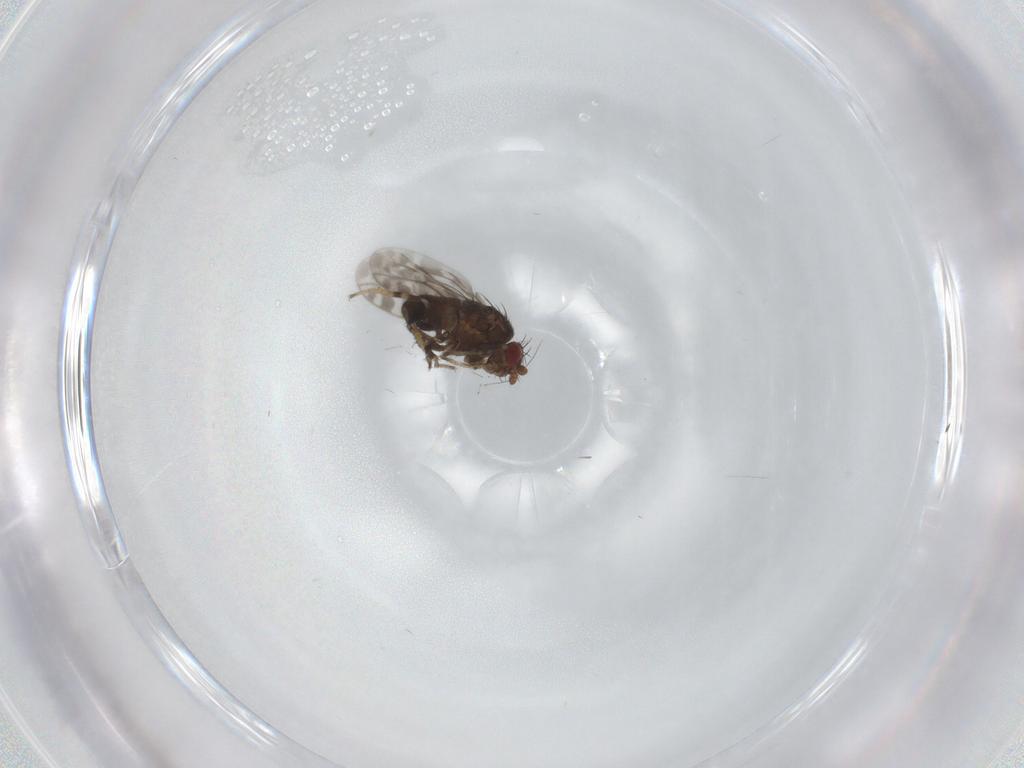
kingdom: Animalia
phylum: Arthropoda
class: Insecta
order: Diptera
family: Sphaeroceridae
